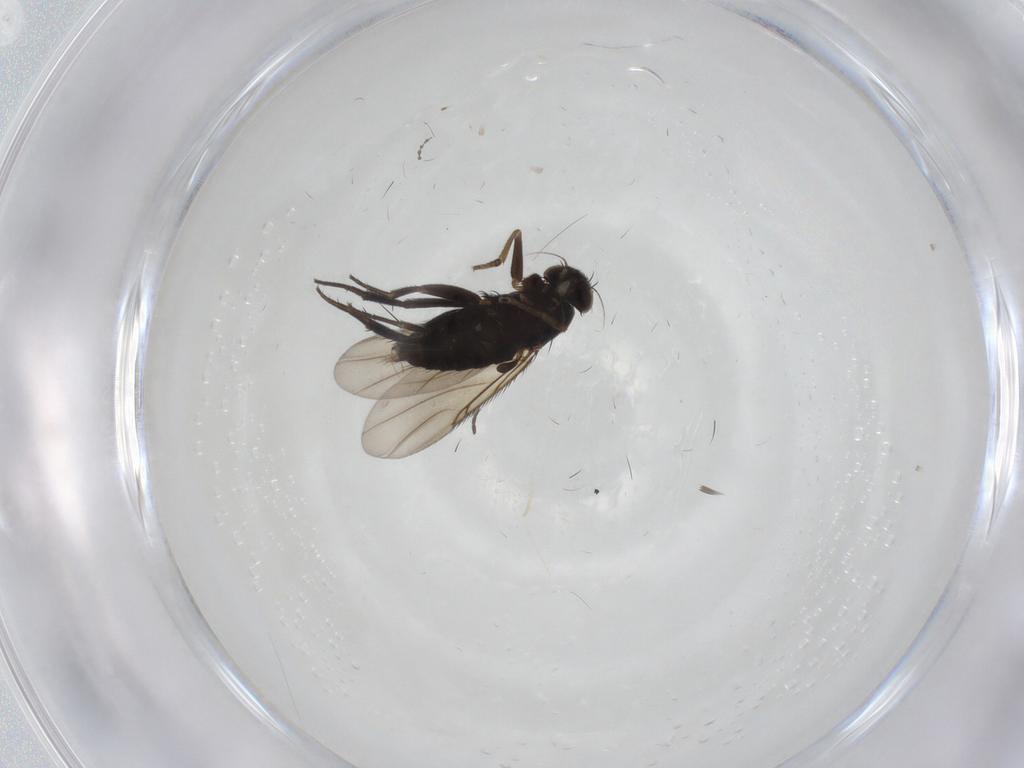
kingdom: Animalia
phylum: Arthropoda
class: Insecta
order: Diptera
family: Phoridae
